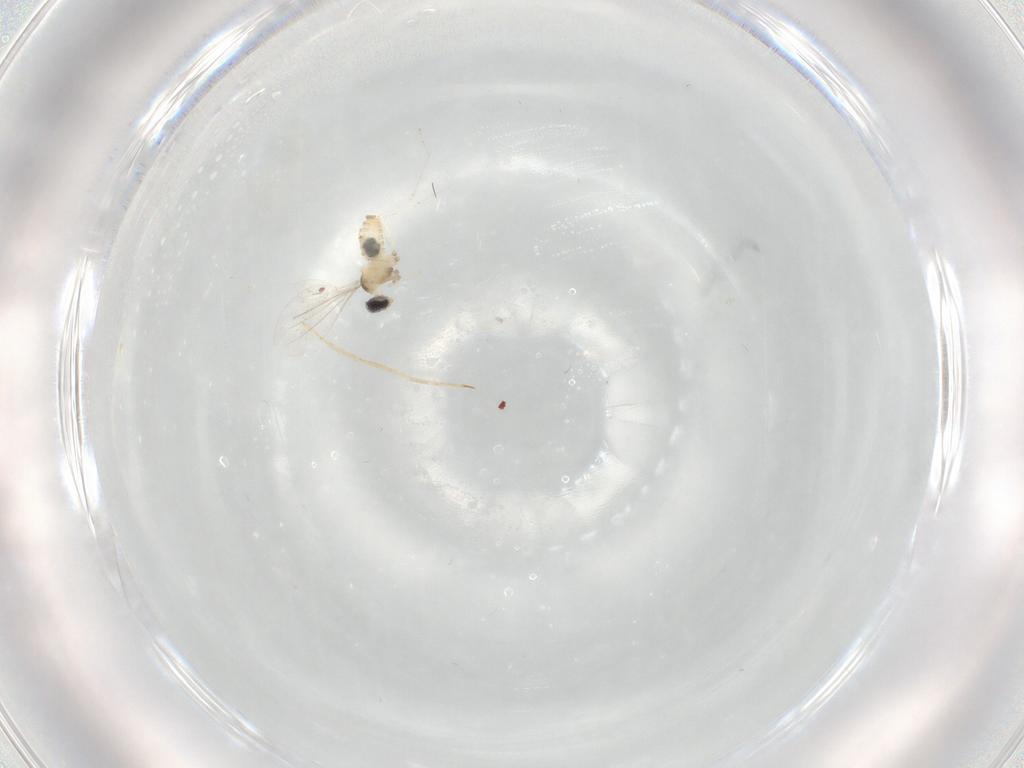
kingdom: Animalia
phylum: Arthropoda
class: Insecta
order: Diptera
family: Cecidomyiidae
